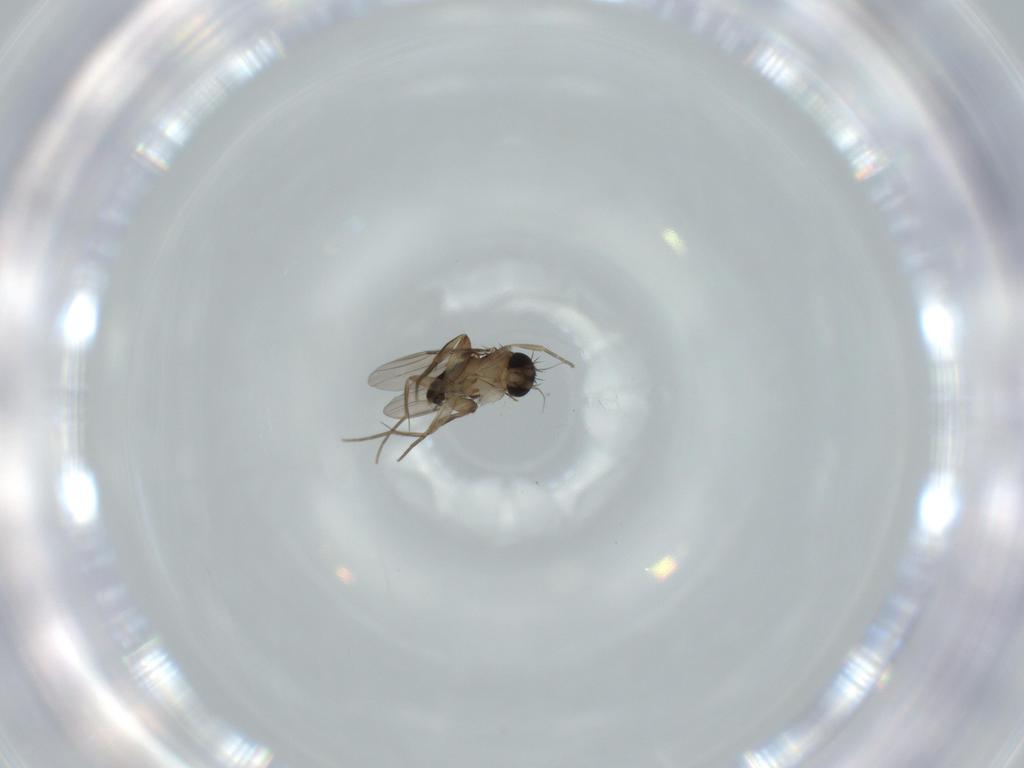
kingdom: Animalia
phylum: Arthropoda
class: Insecta
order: Diptera
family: Phoridae
